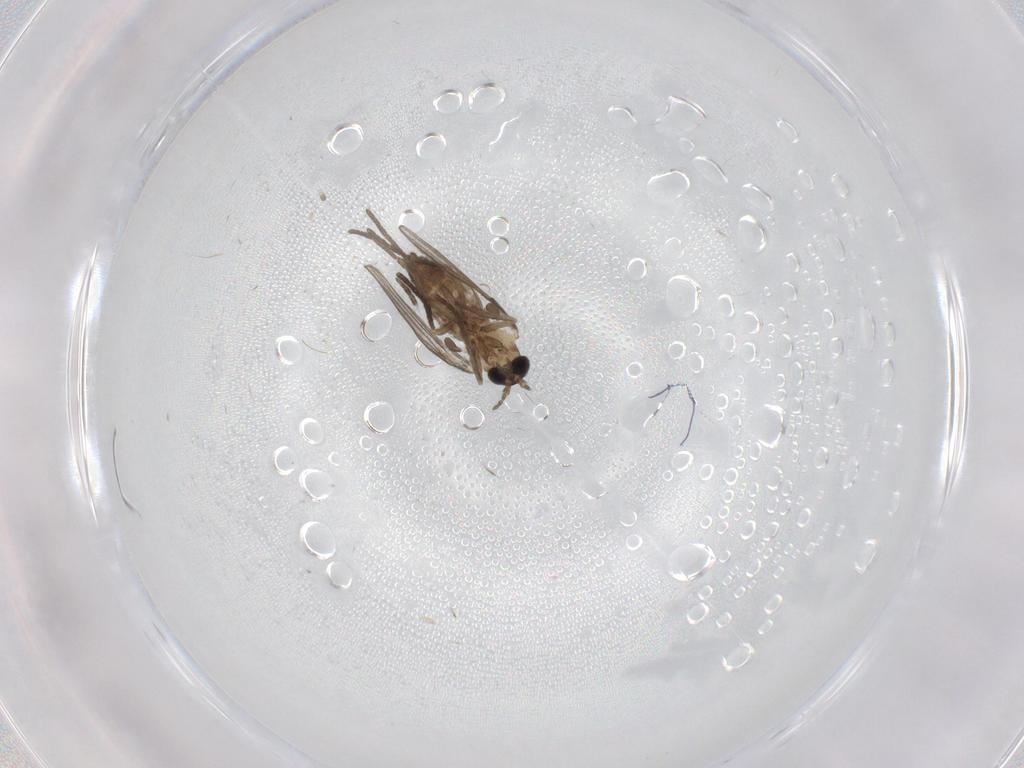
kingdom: Animalia
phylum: Arthropoda
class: Insecta
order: Diptera
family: Psychodidae
